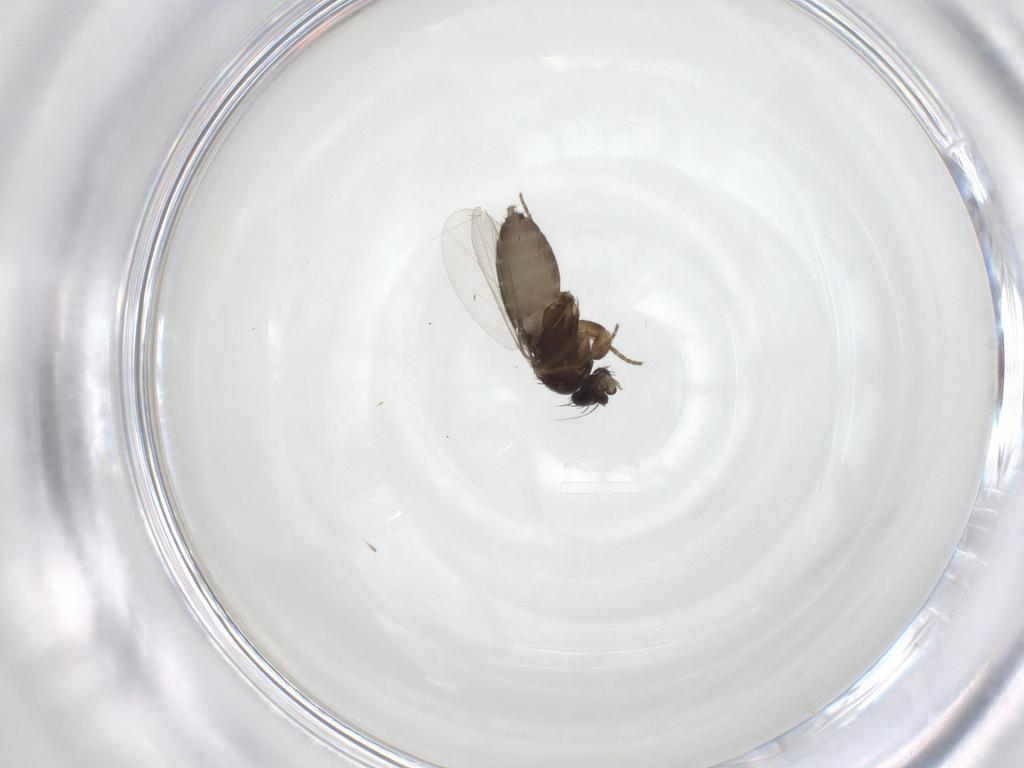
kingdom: Animalia
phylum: Arthropoda
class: Insecta
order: Diptera
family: Phoridae
